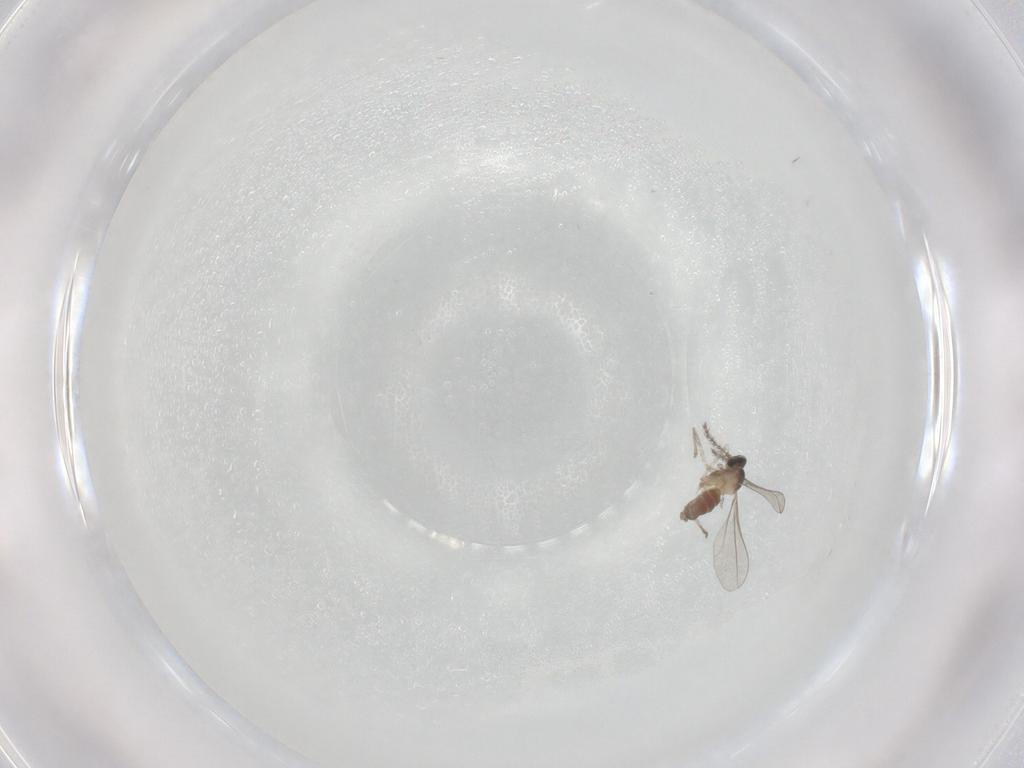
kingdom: Animalia
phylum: Arthropoda
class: Insecta
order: Diptera
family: Cecidomyiidae
